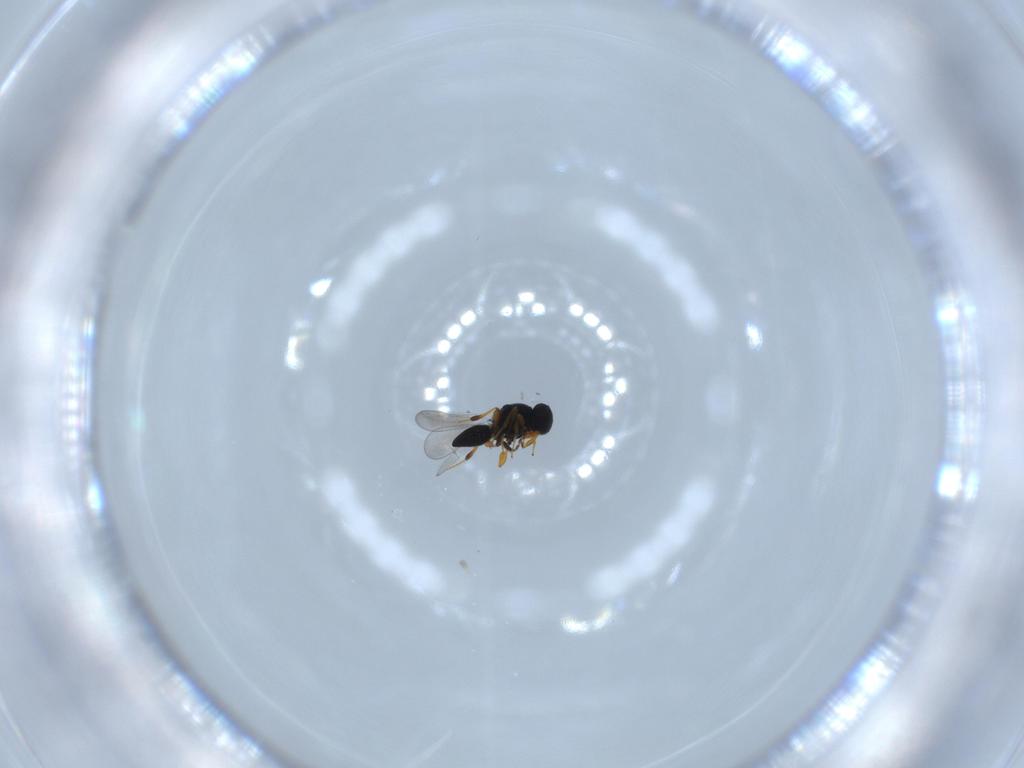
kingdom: Animalia
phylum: Arthropoda
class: Insecta
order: Hymenoptera
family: Platygastridae
